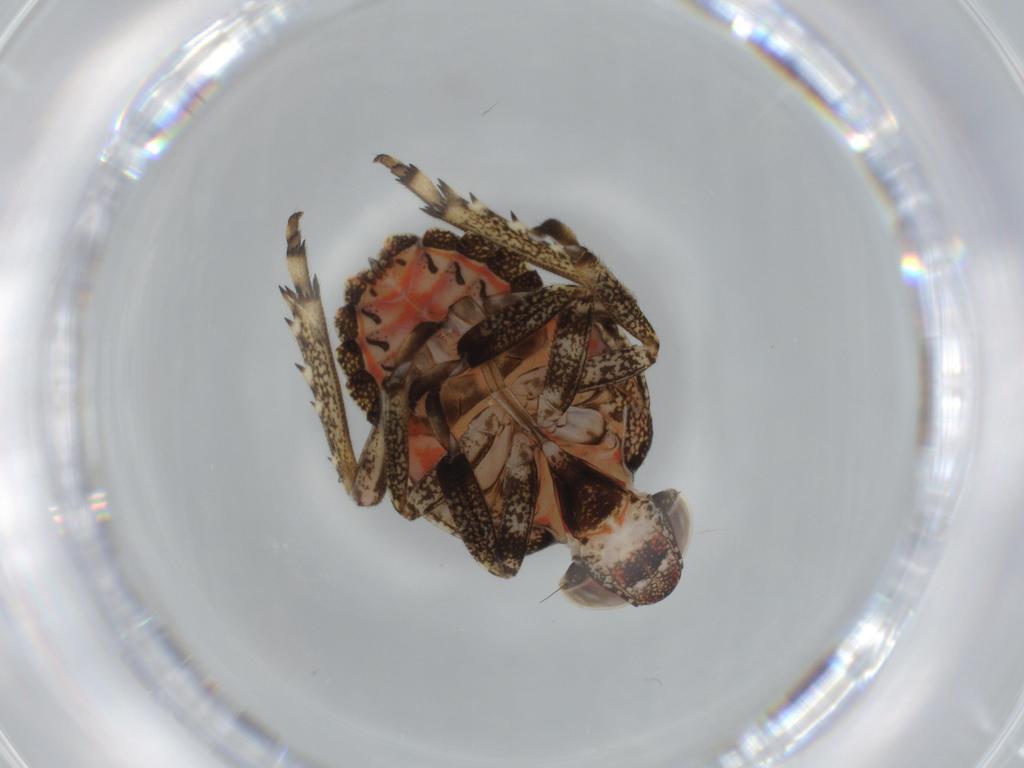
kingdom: Animalia
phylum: Arthropoda
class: Insecta
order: Hemiptera
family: Issidae
